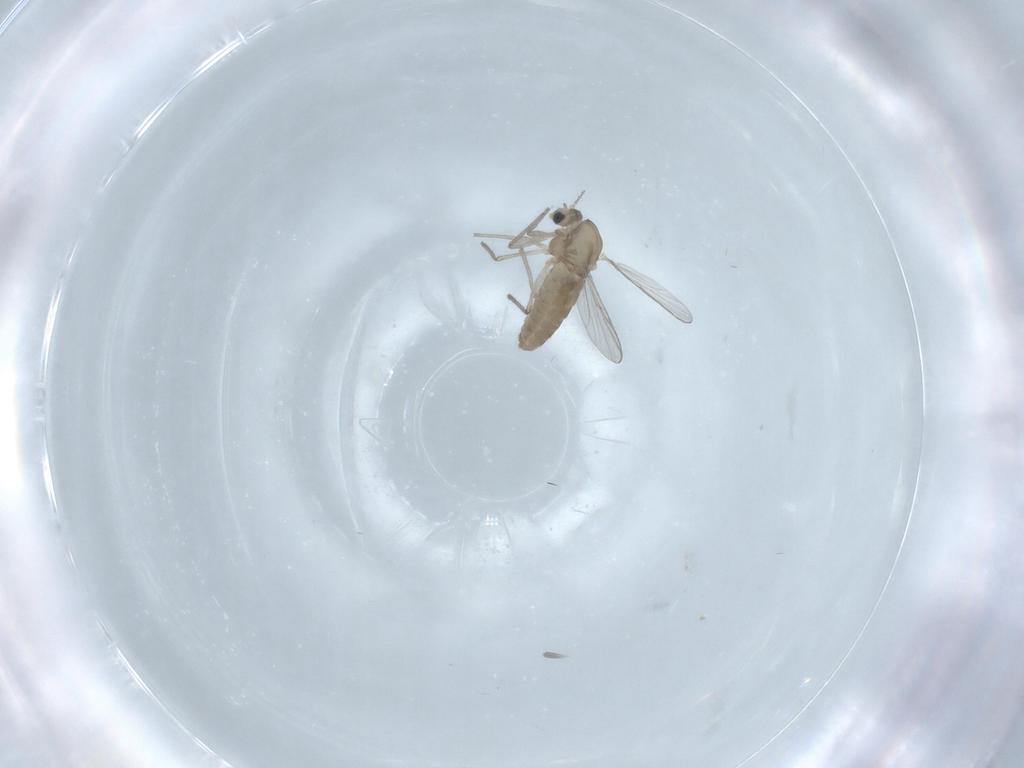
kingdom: Animalia
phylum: Arthropoda
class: Insecta
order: Diptera
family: Chironomidae
